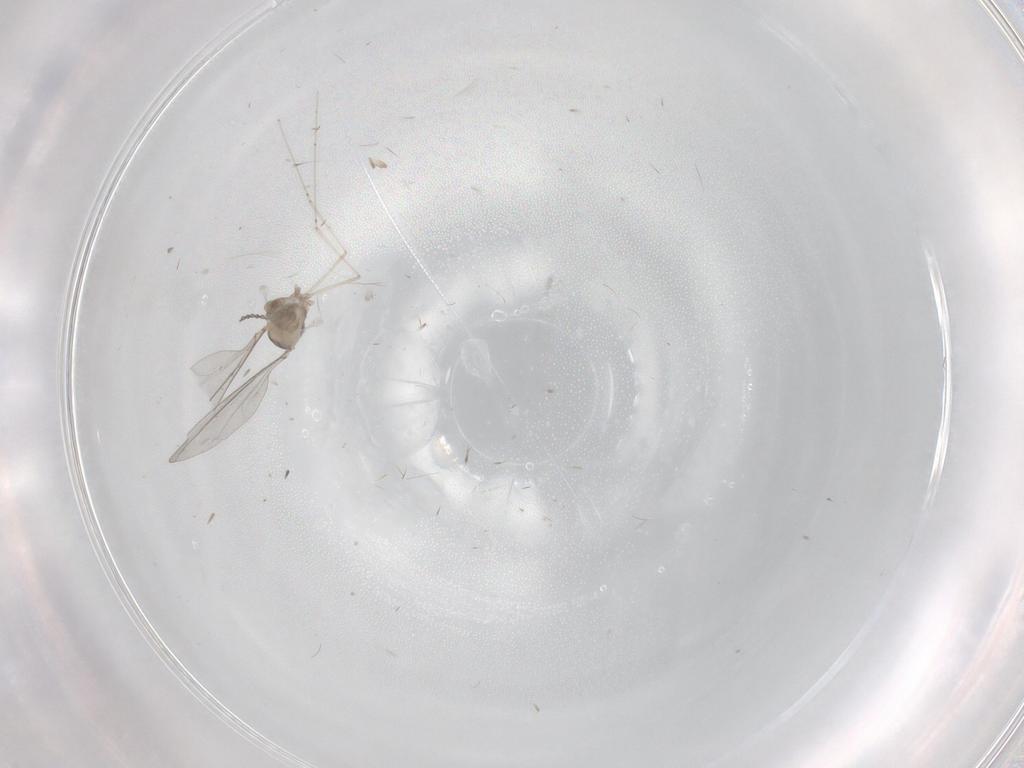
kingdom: Animalia
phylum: Arthropoda
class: Insecta
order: Diptera
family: Cecidomyiidae
